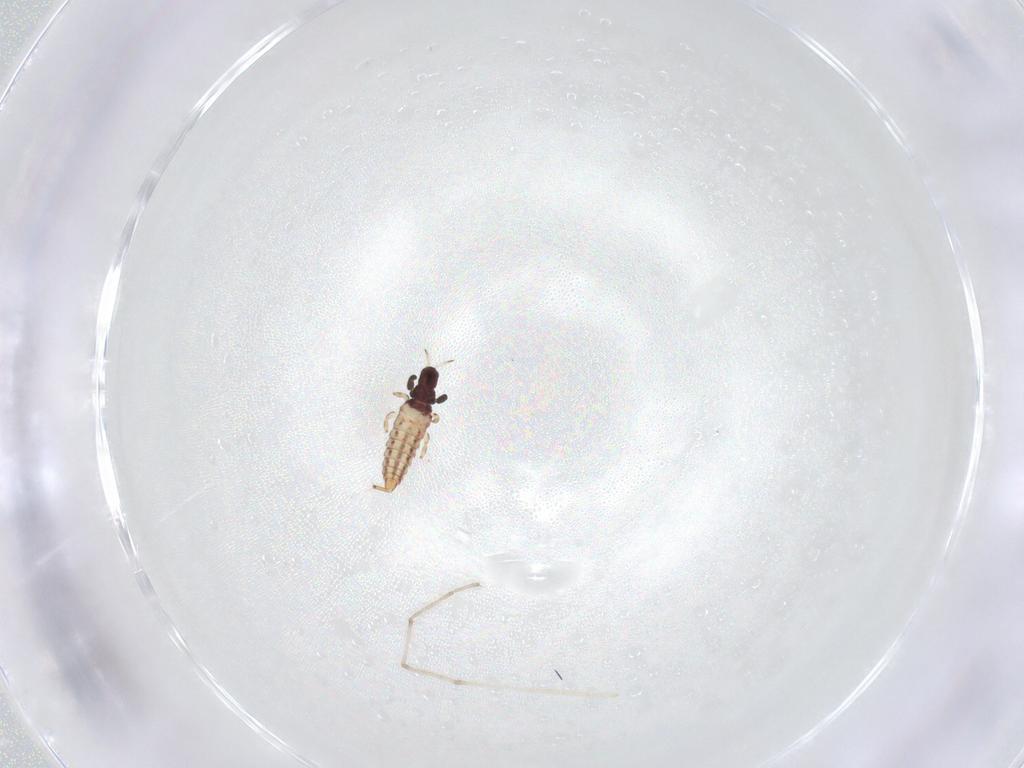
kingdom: Animalia
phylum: Arthropoda
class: Insecta
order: Thysanoptera
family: Phlaeothripidae
